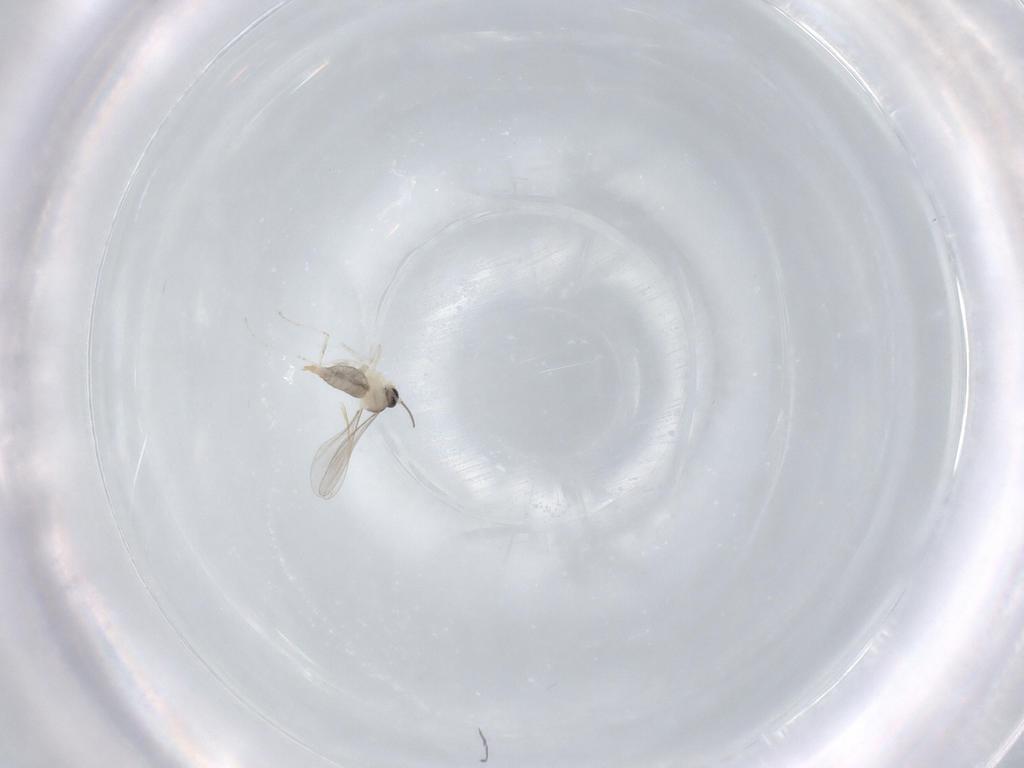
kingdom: Animalia
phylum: Arthropoda
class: Insecta
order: Diptera
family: Cecidomyiidae
